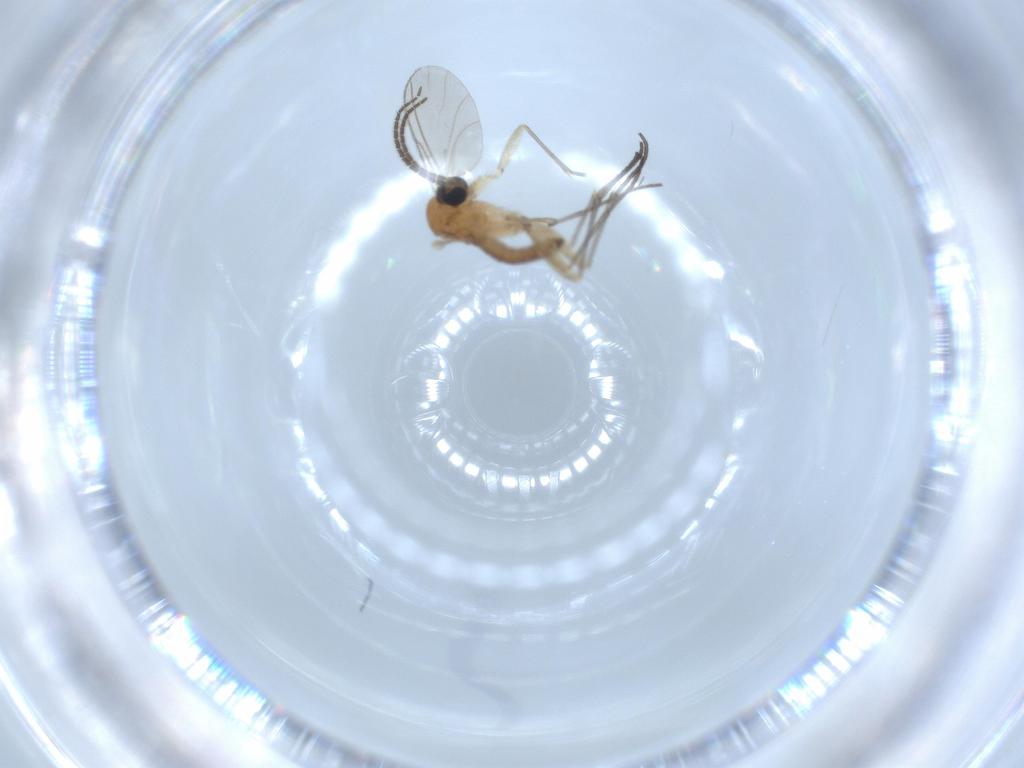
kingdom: Animalia
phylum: Arthropoda
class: Insecta
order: Diptera
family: Sciaridae
